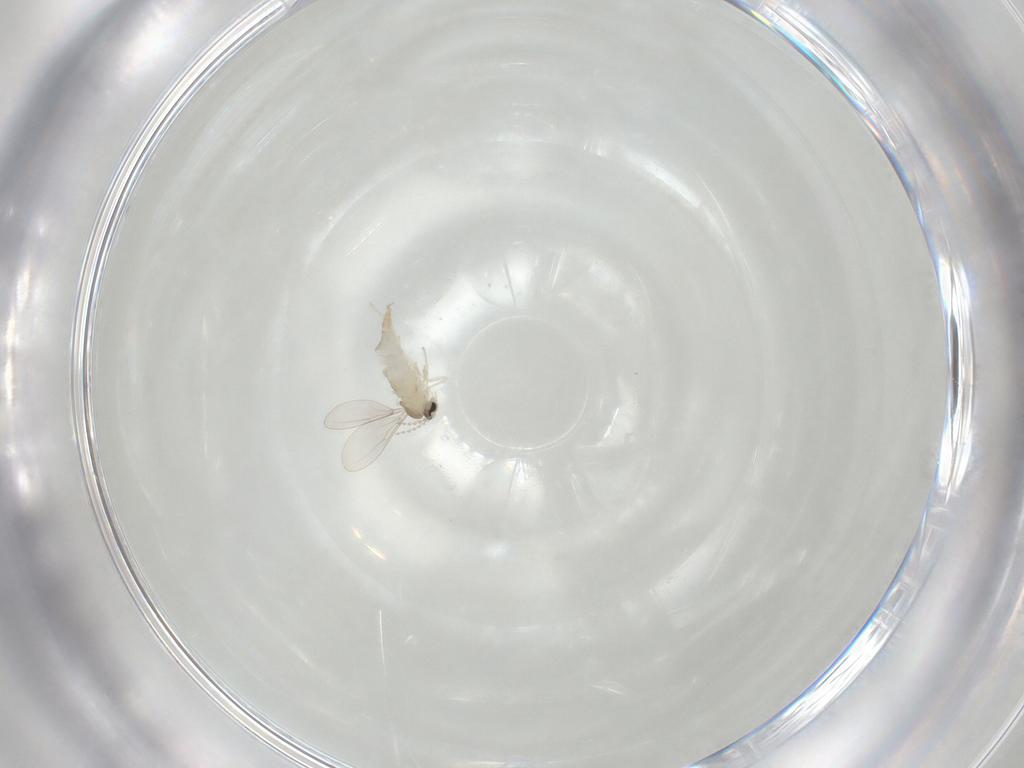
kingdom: Animalia
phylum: Arthropoda
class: Insecta
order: Diptera
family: Cecidomyiidae
